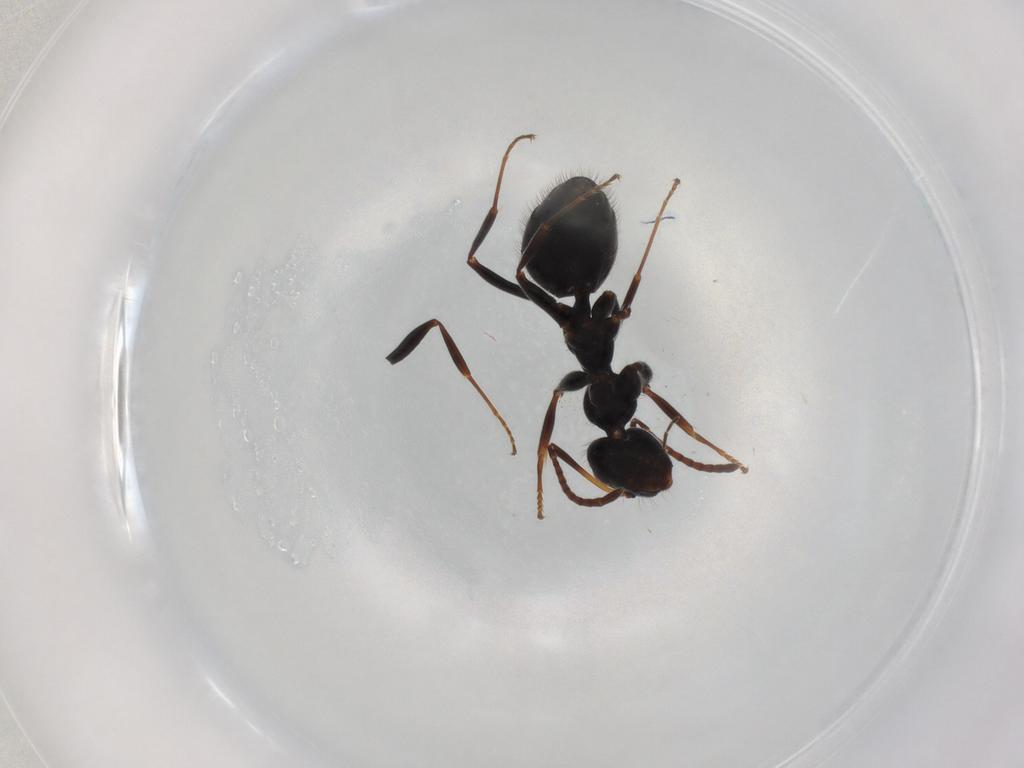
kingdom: Animalia
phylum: Arthropoda
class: Insecta
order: Hymenoptera
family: Formicidae
